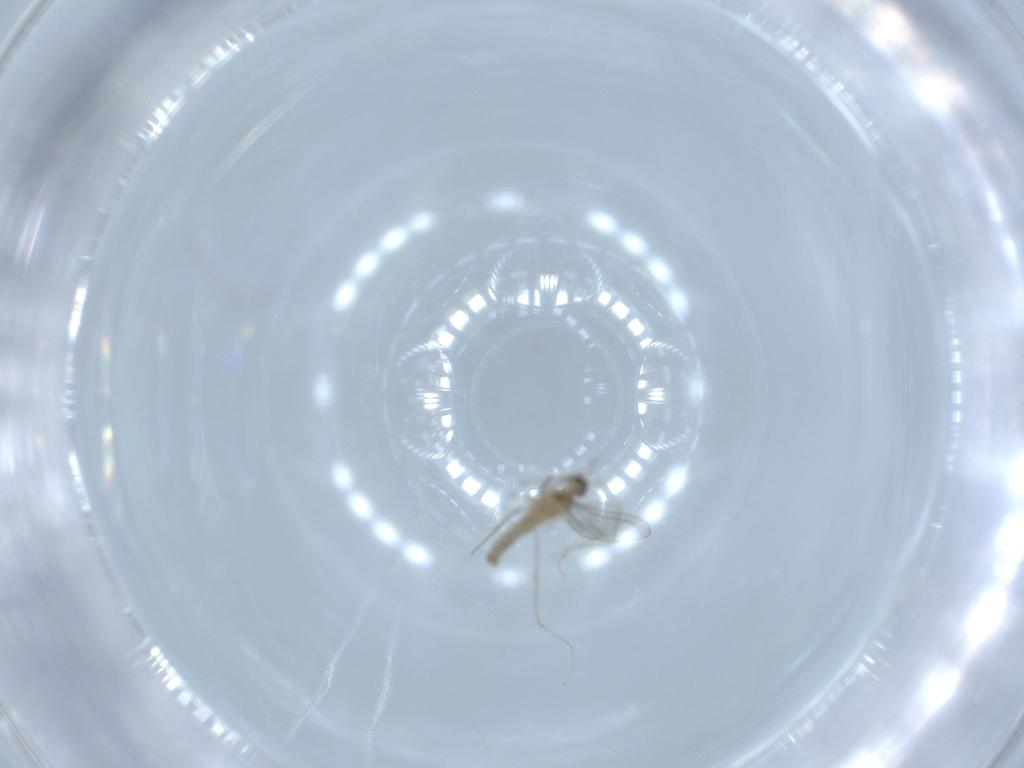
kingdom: Animalia
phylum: Arthropoda
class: Insecta
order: Diptera
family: Cecidomyiidae
